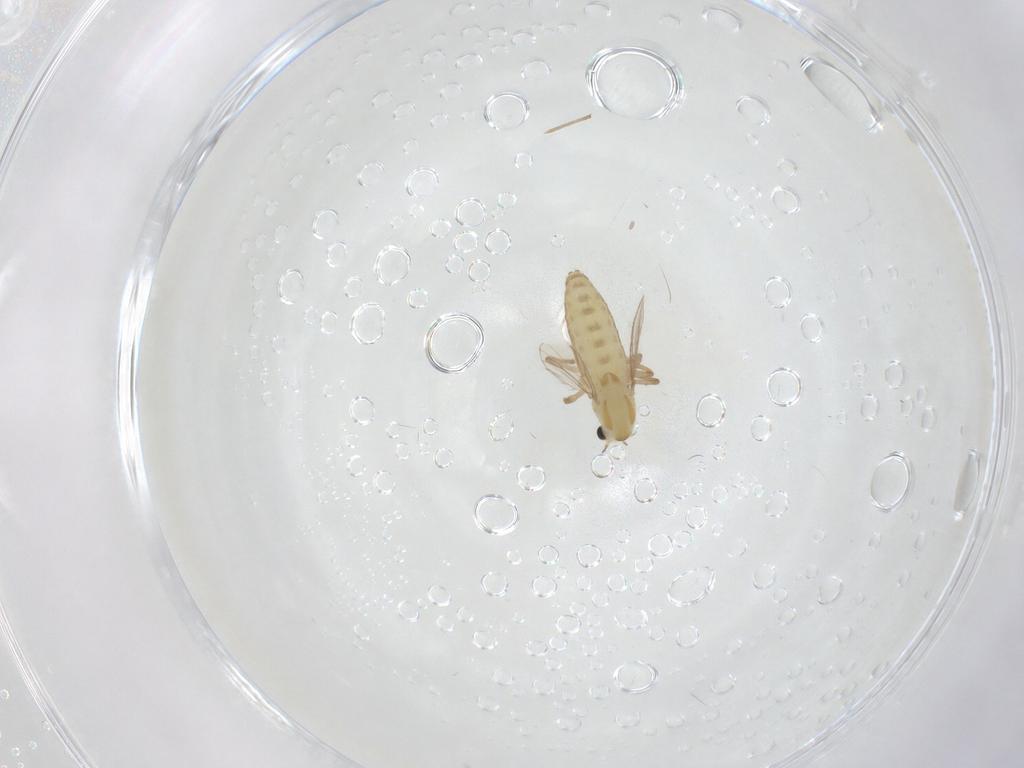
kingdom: Animalia
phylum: Arthropoda
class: Insecta
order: Diptera
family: Chironomidae
